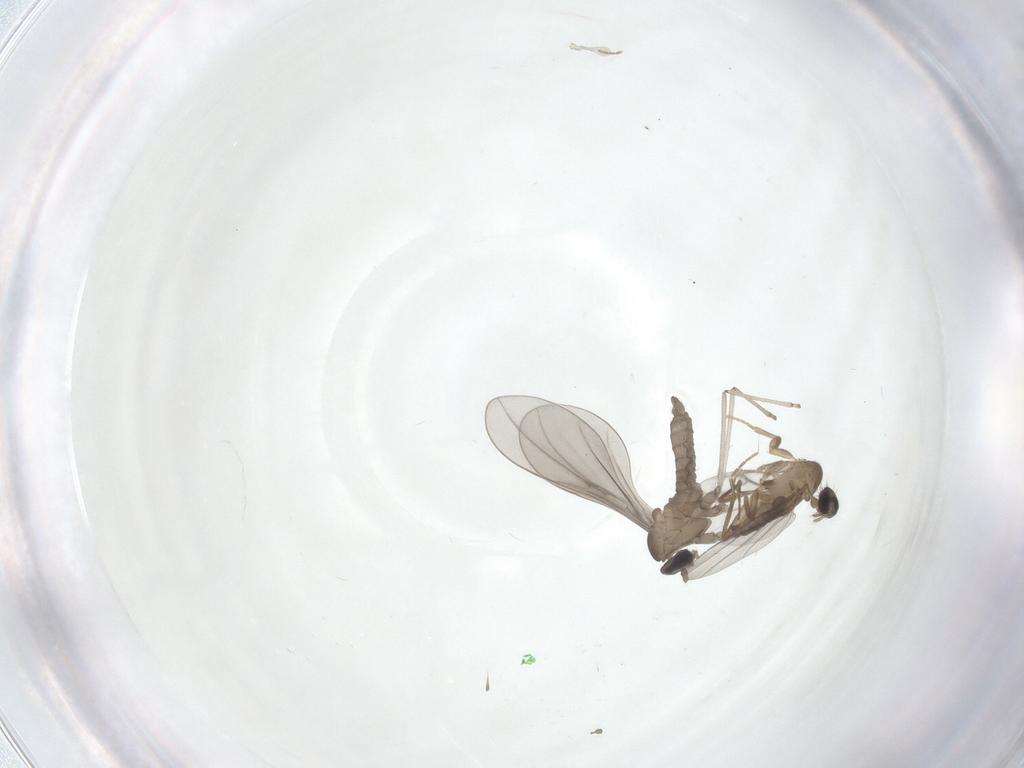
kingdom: Animalia
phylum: Arthropoda
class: Insecta
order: Diptera
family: Cecidomyiidae
